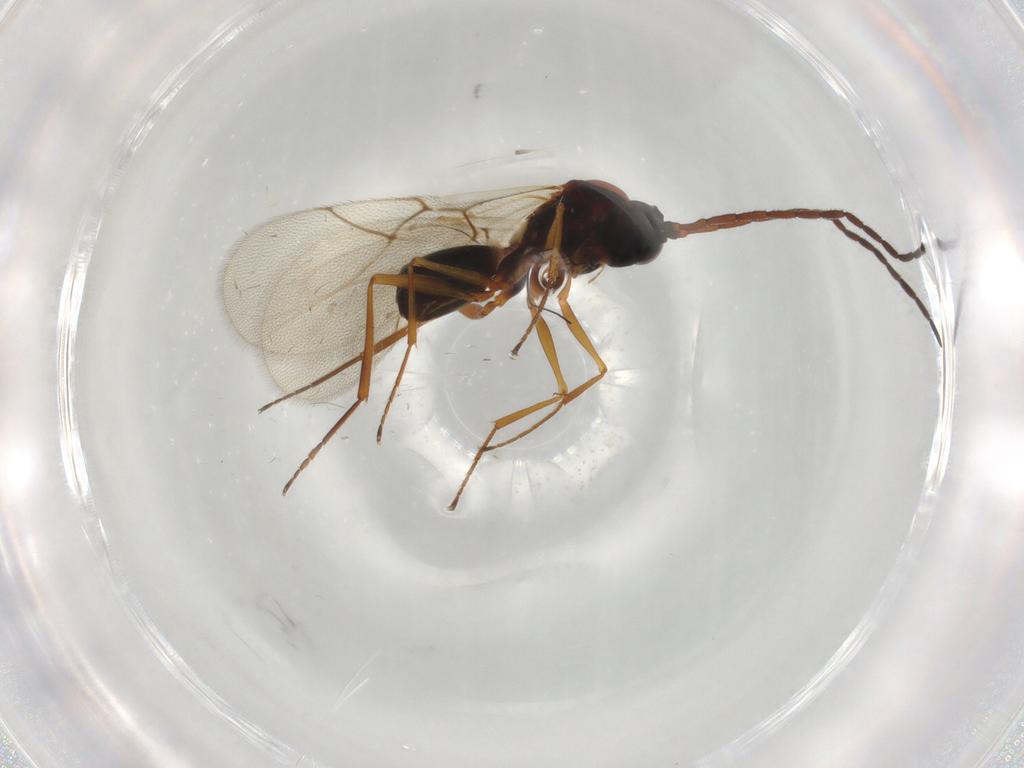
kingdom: Animalia
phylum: Arthropoda
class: Insecta
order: Hymenoptera
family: Figitidae
